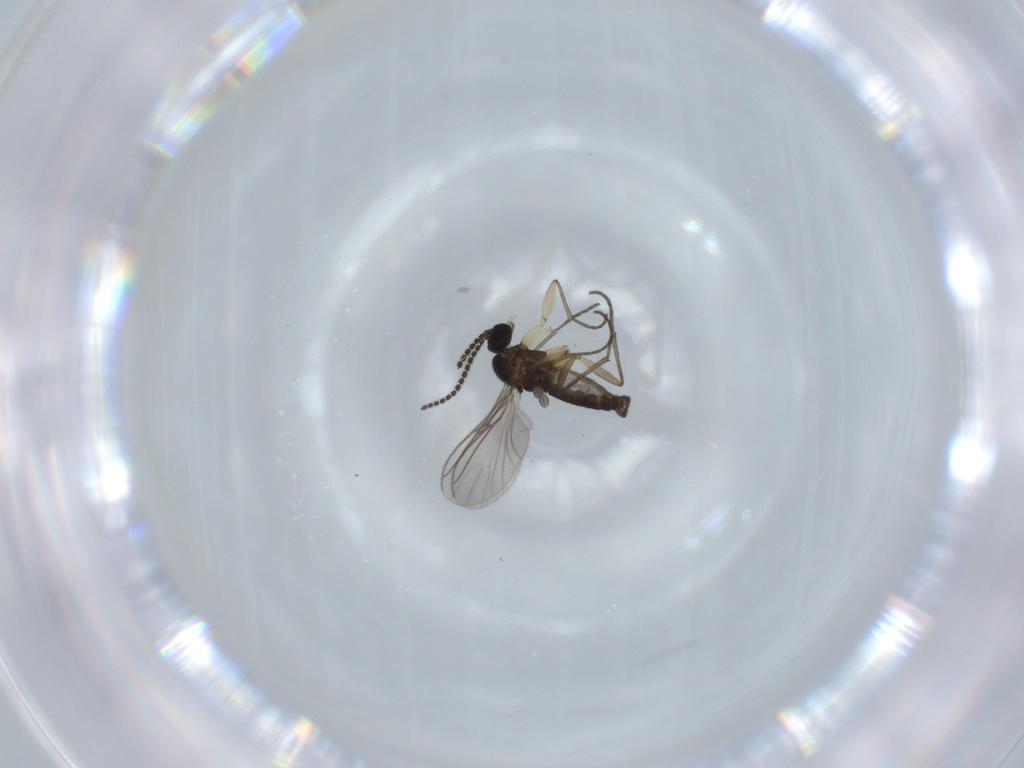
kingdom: Animalia
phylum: Arthropoda
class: Insecta
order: Diptera
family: Sciaridae
